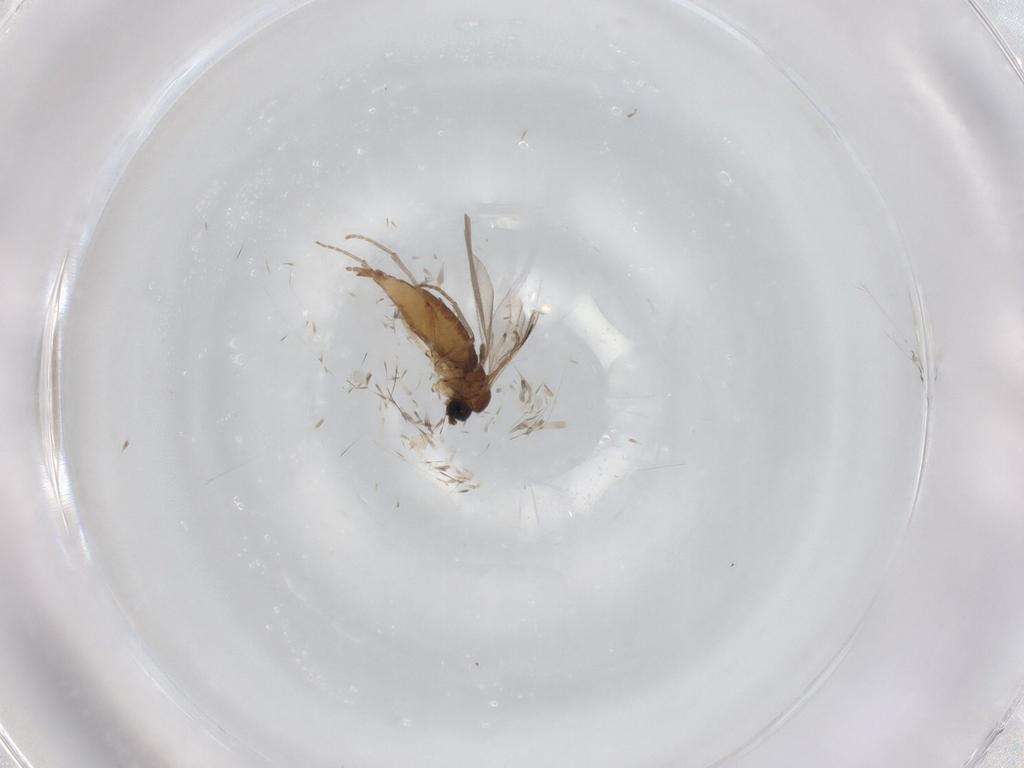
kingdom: Animalia
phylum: Arthropoda
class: Insecta
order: Diptera
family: Sciaridae
